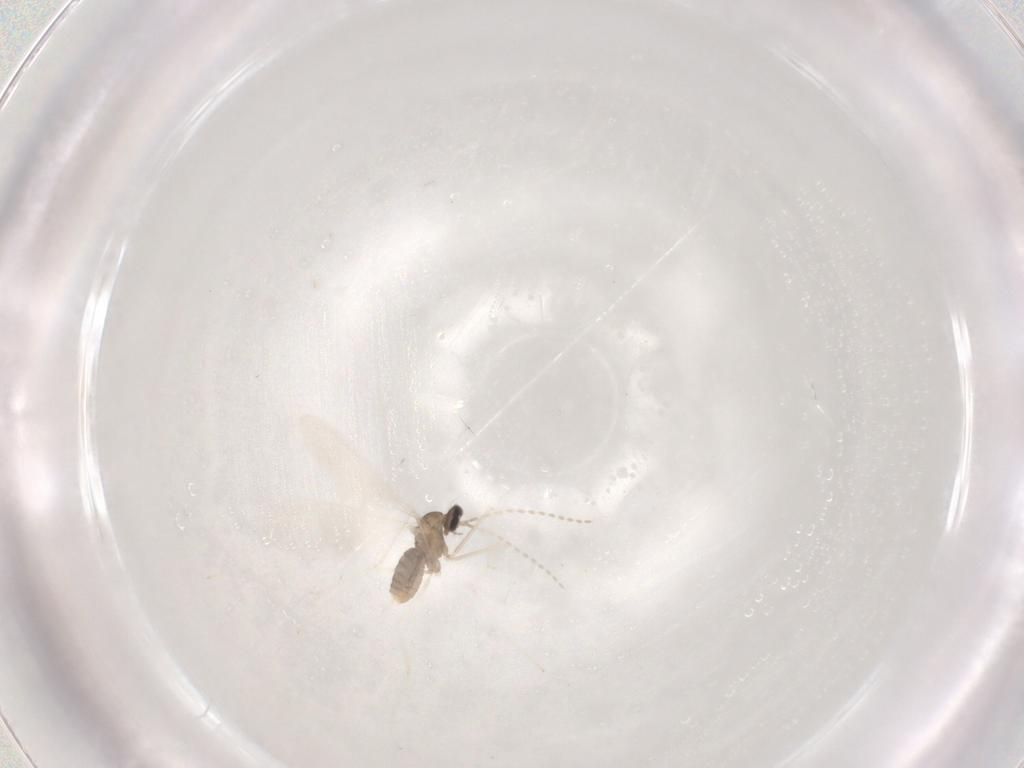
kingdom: Animalia
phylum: Arthropoda
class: Insecta
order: Diptera
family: Cecidomyiidae
